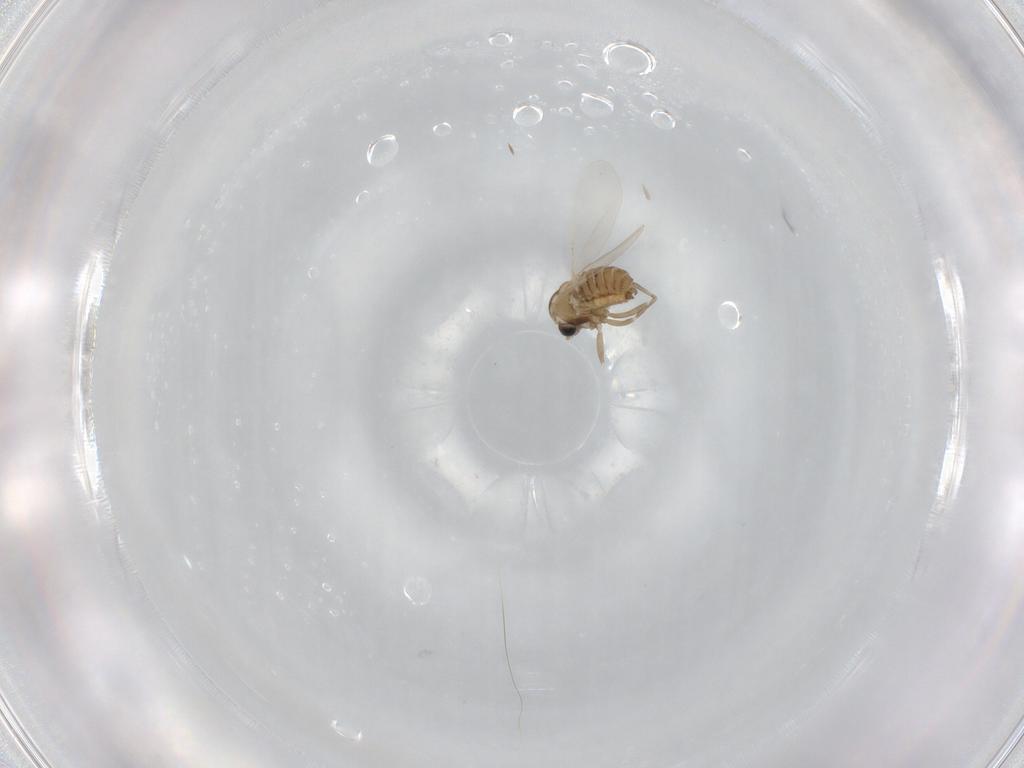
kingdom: Animalia
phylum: Arthropoda
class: Insecta
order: Diptera
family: Cecidomyiidae
